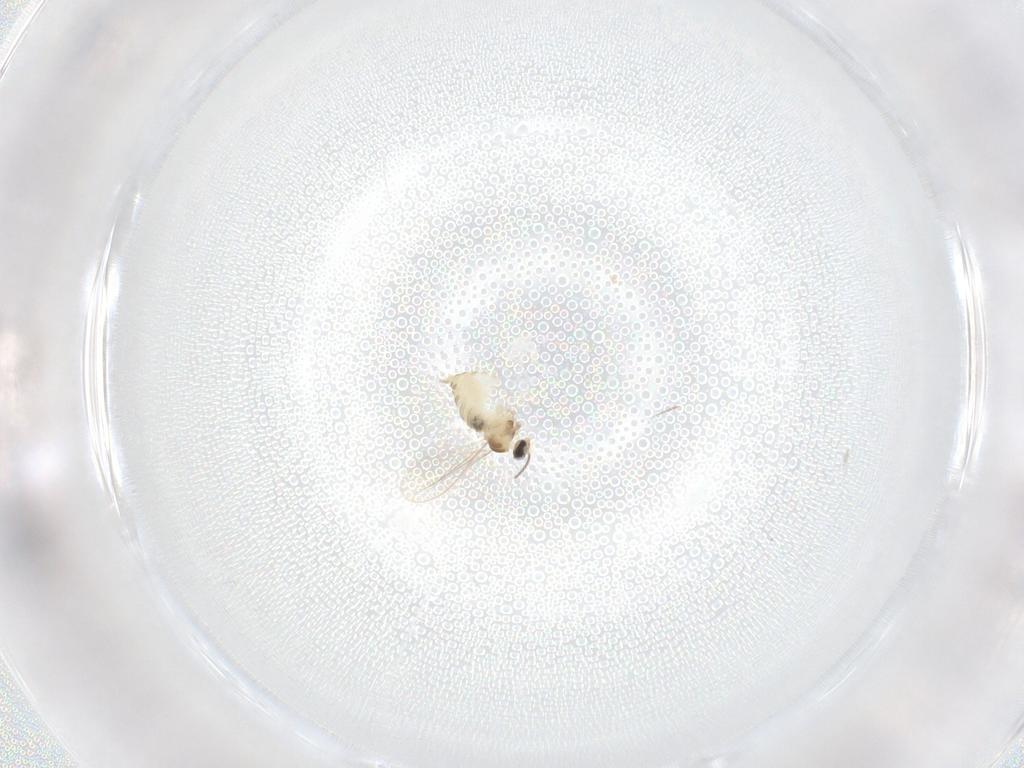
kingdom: Animalia
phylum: Arthropoda
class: Insecta
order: Diptera
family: Cecidomyiidae
